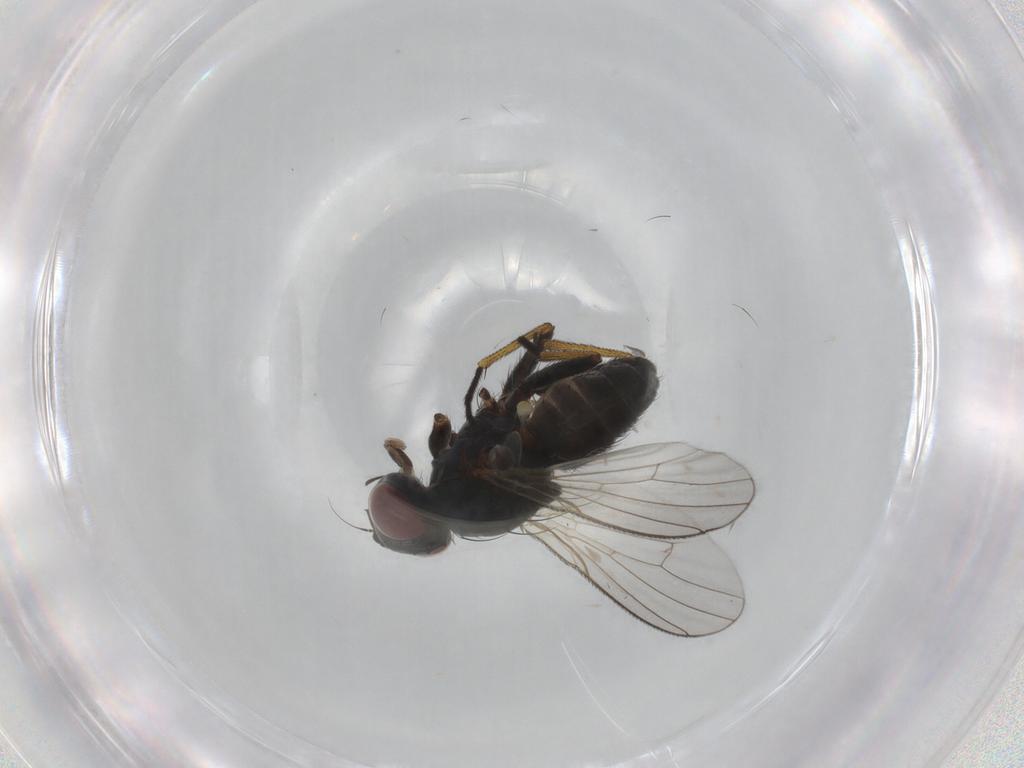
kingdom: Animalia
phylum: Arthropoda
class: Insecta
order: Diptera
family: Muscidae
